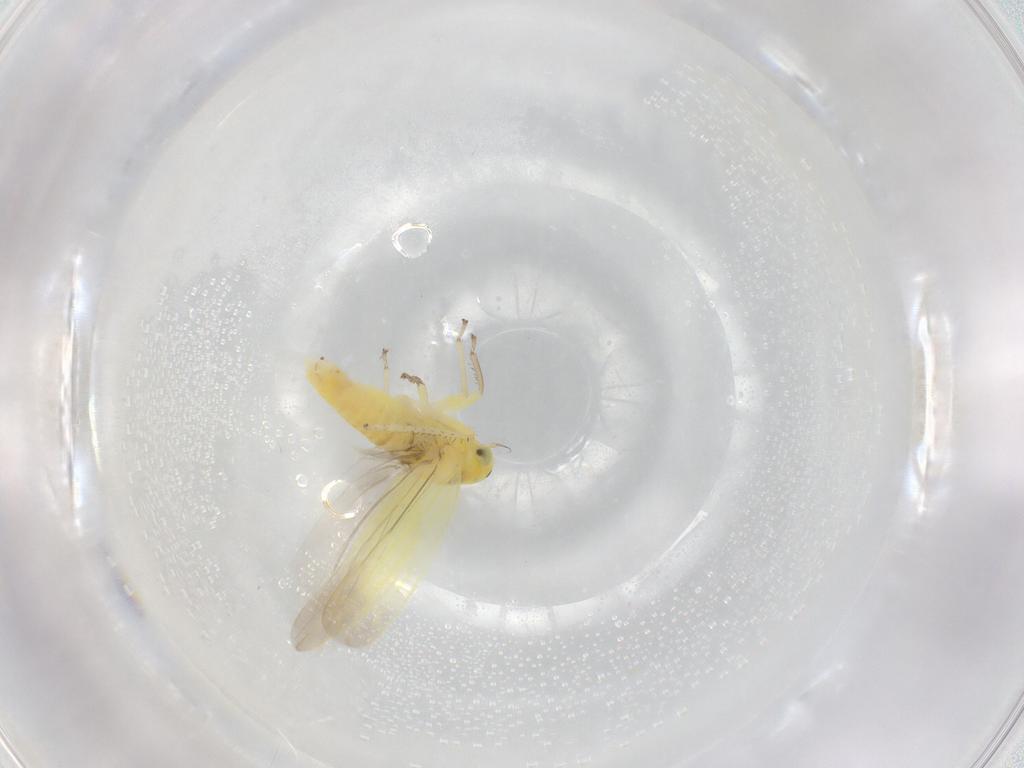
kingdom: Animalia
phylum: Arthropoda
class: Insecta
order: Hemiptera
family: Cicadellidae
